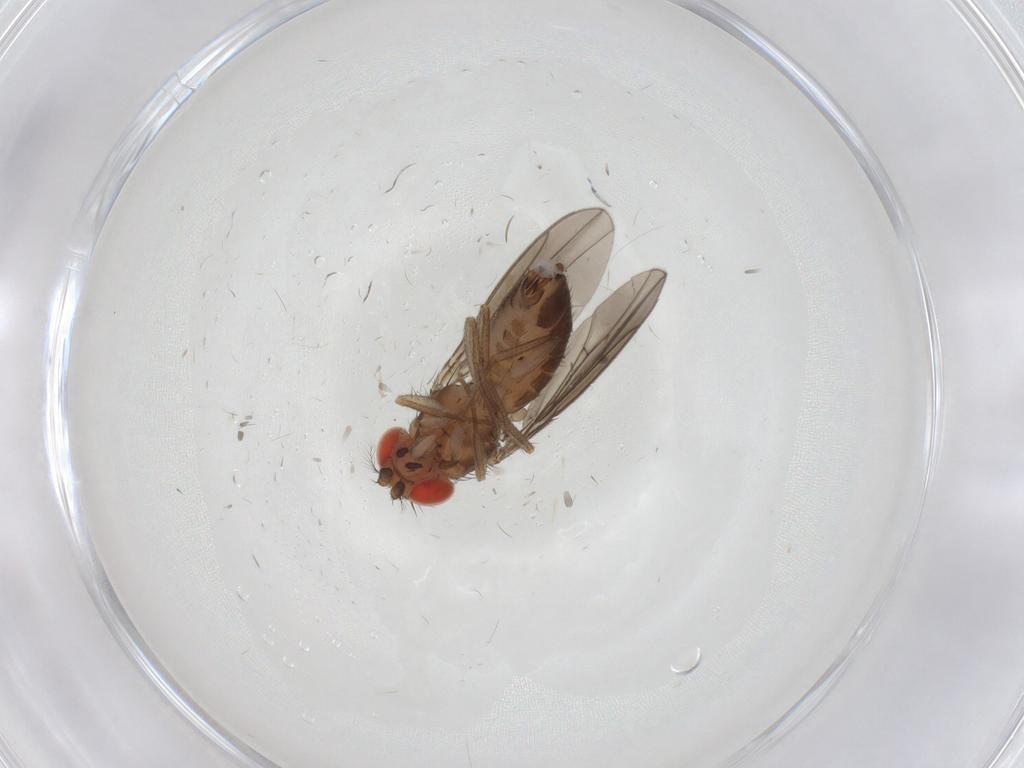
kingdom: Animalia
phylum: Arthropoda
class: Insecta
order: Diptera
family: Drosophilidae
